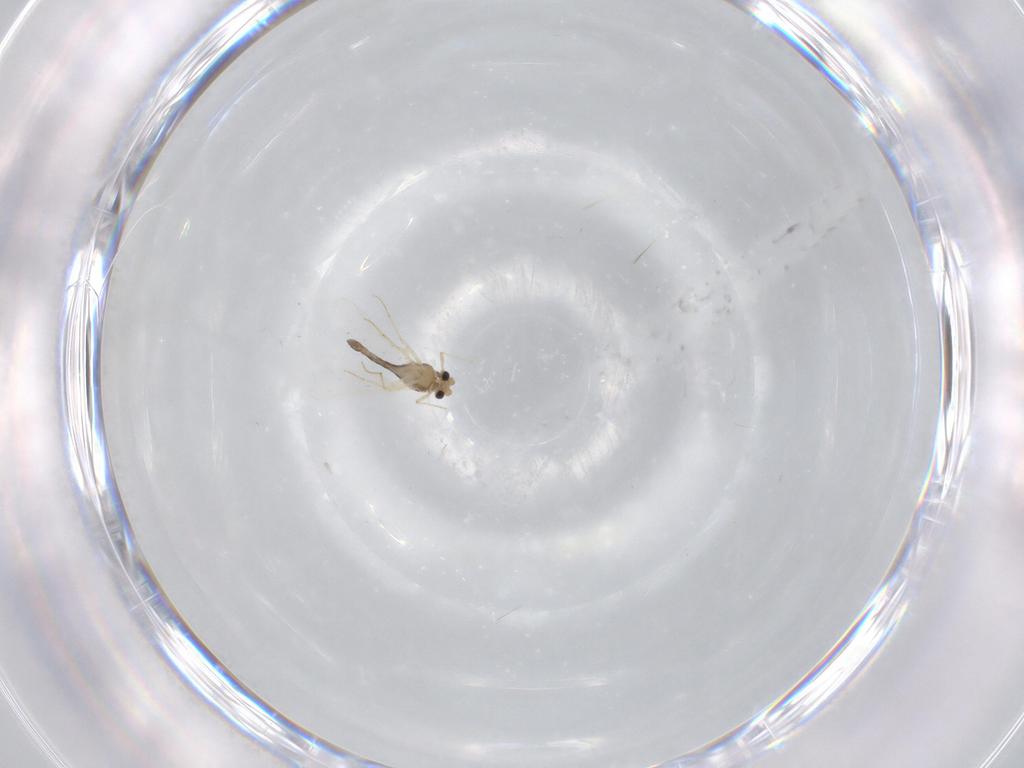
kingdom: Animalia
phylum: Arthropoda
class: Insecta
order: Diptera
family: Chironomidae
